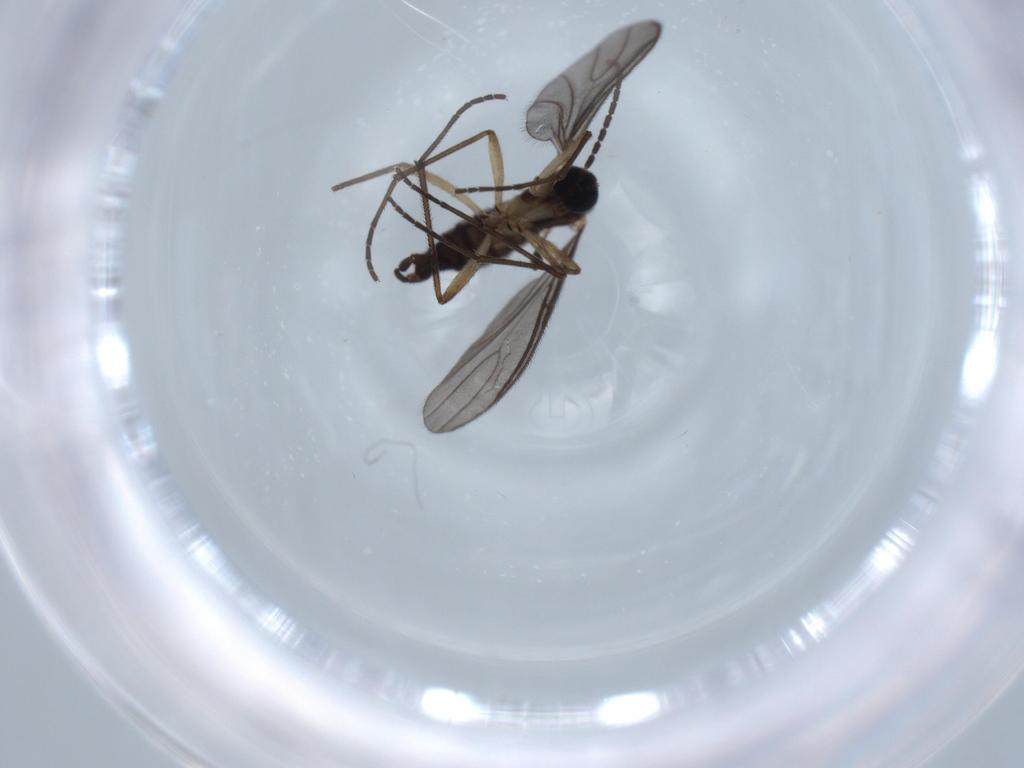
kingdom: Animalia
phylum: Arthropoda
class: Insecta
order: Diptera
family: Sciaridae
